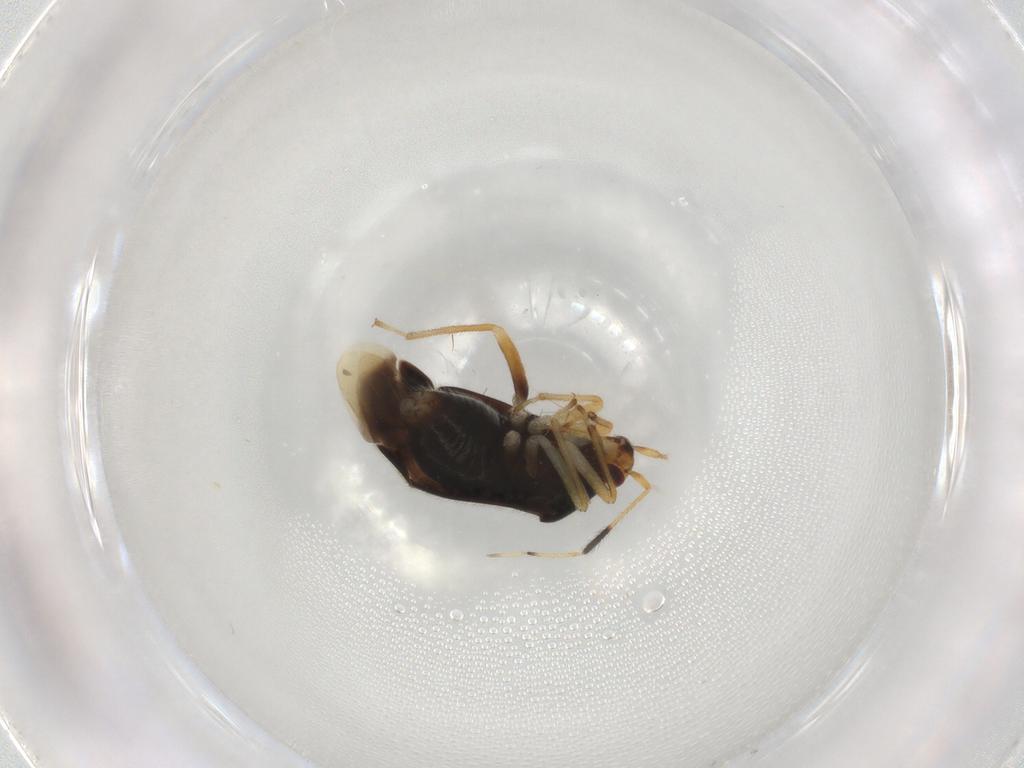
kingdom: Animalia
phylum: Arthropoda
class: Insecta
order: Hemiptera
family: Miridae
